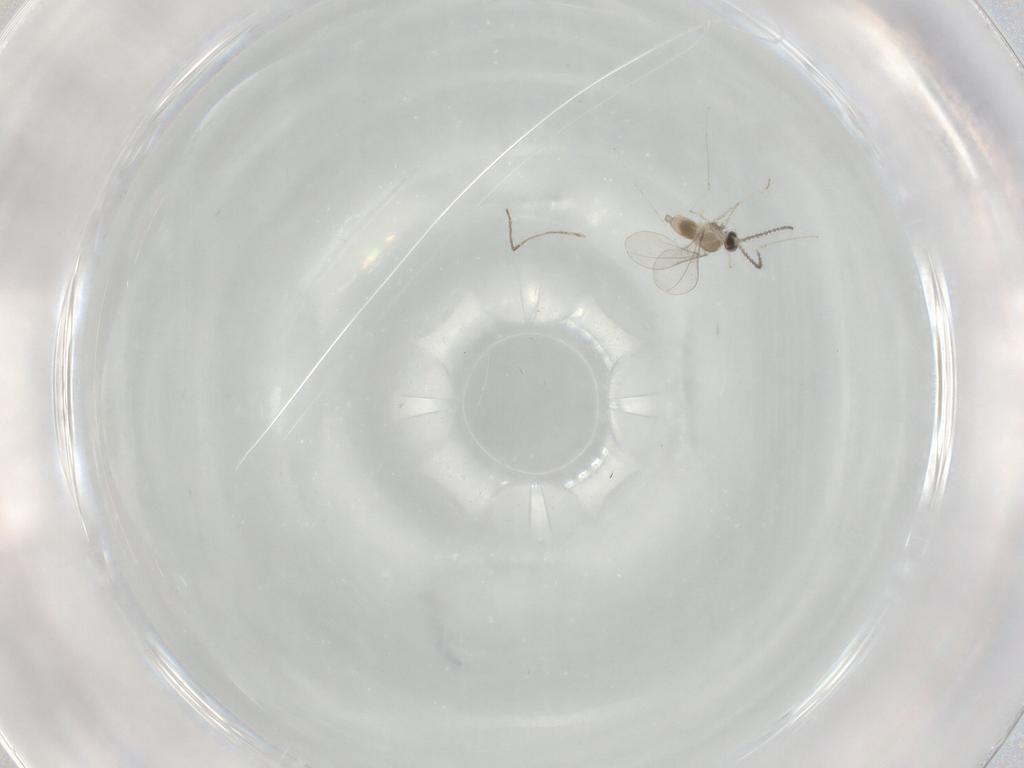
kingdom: Animalia
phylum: Arthropoda
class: Insecta
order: Diptera
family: Cecidomyiidae
